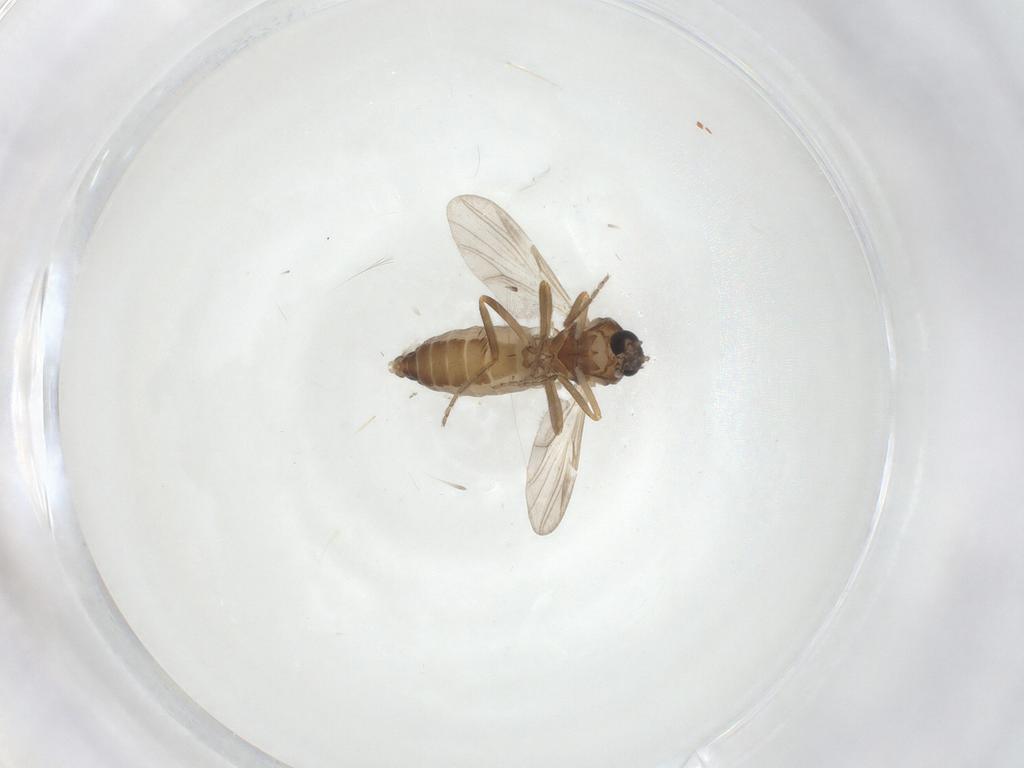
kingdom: Animalia
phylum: Arthropoda
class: Insecta
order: Diptera
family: Ceratopogonidae
